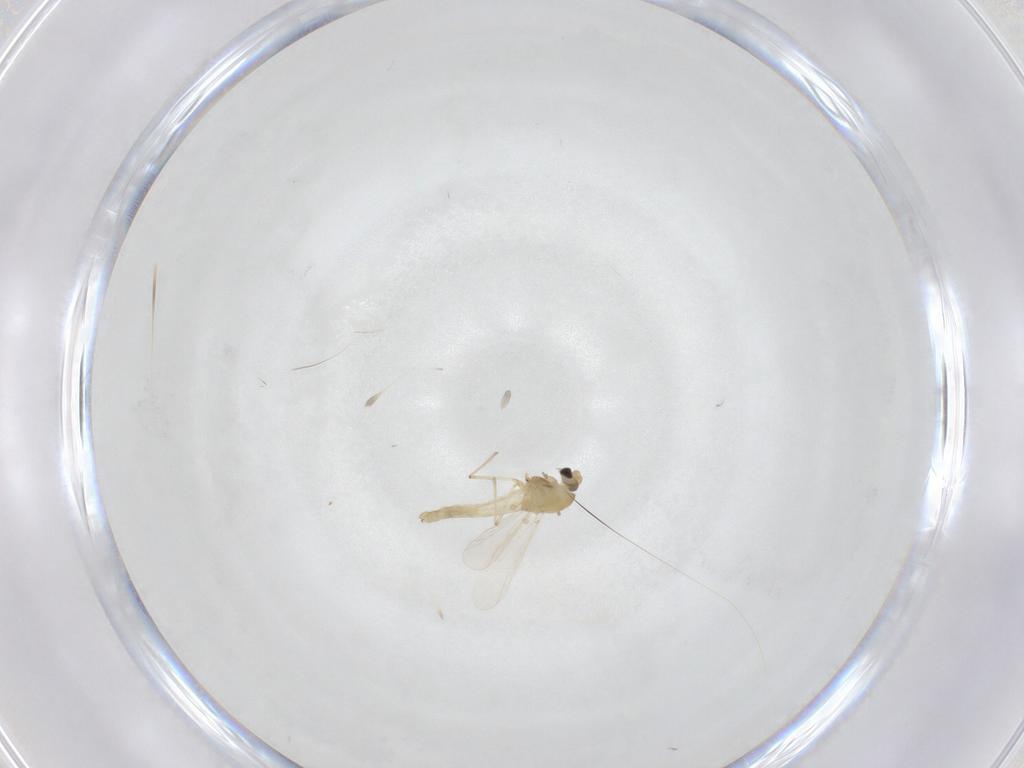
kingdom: Animalia
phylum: Arthropoda
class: Insecta
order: Diptera
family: Chironomidae
